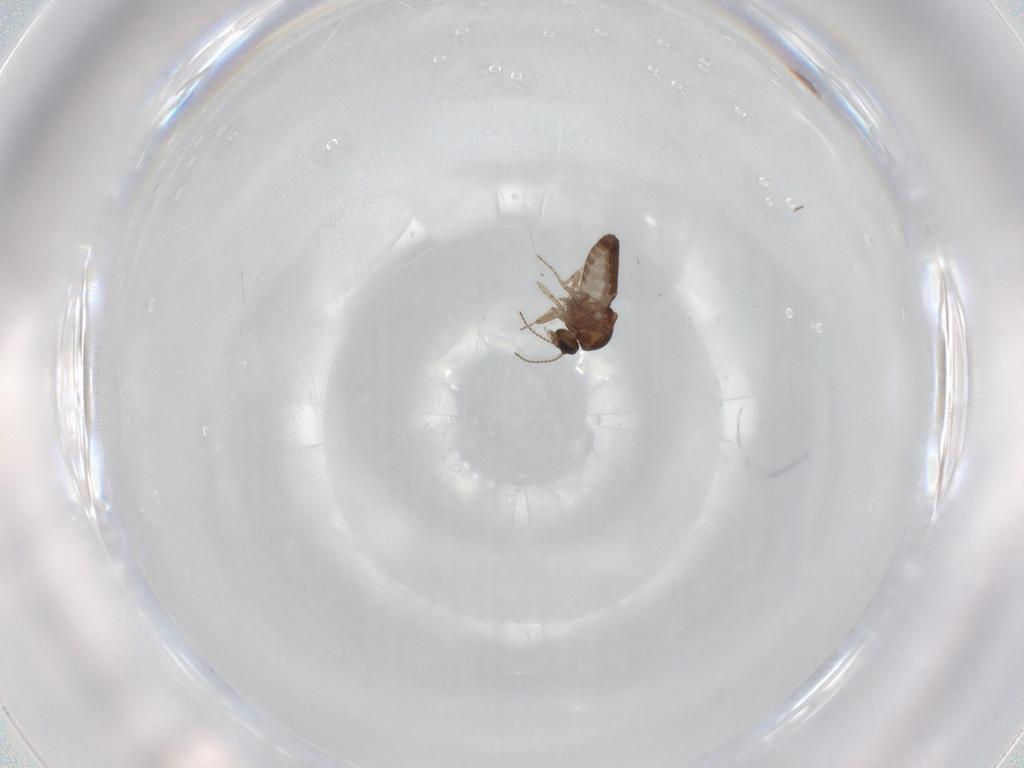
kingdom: Animalia
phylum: Arthropoda
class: Insecta
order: Diptera
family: Ceratopogonidae
